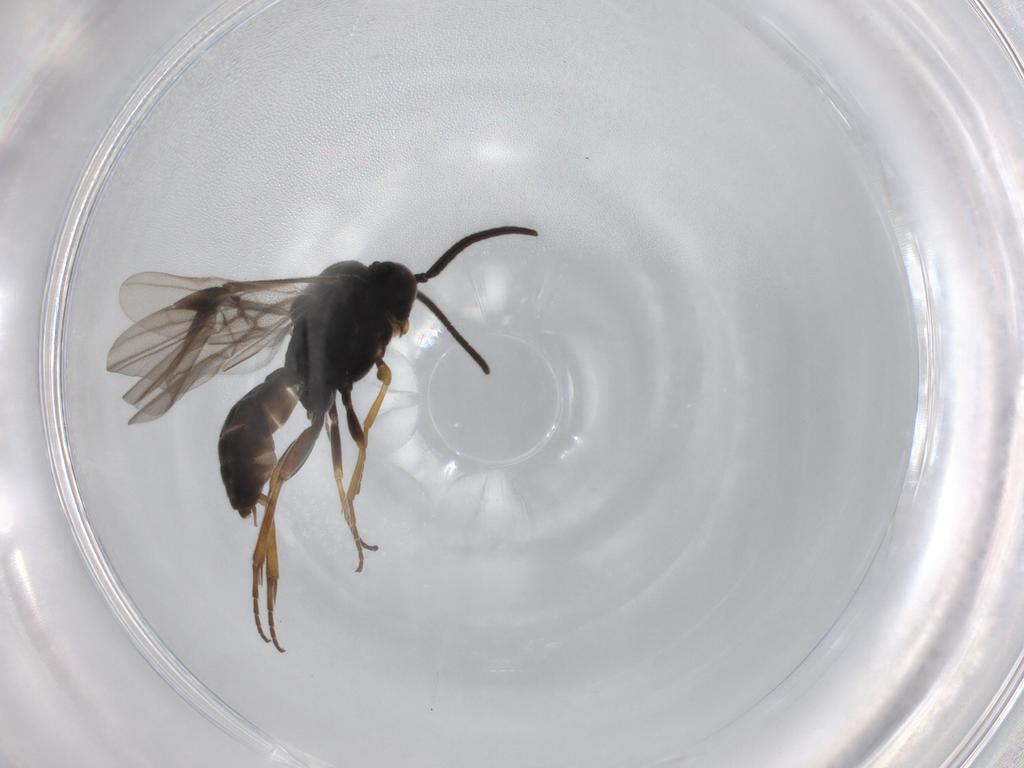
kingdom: Animalia
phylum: Arthropoda
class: Insecta
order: Hymenoptera
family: Braconidae
